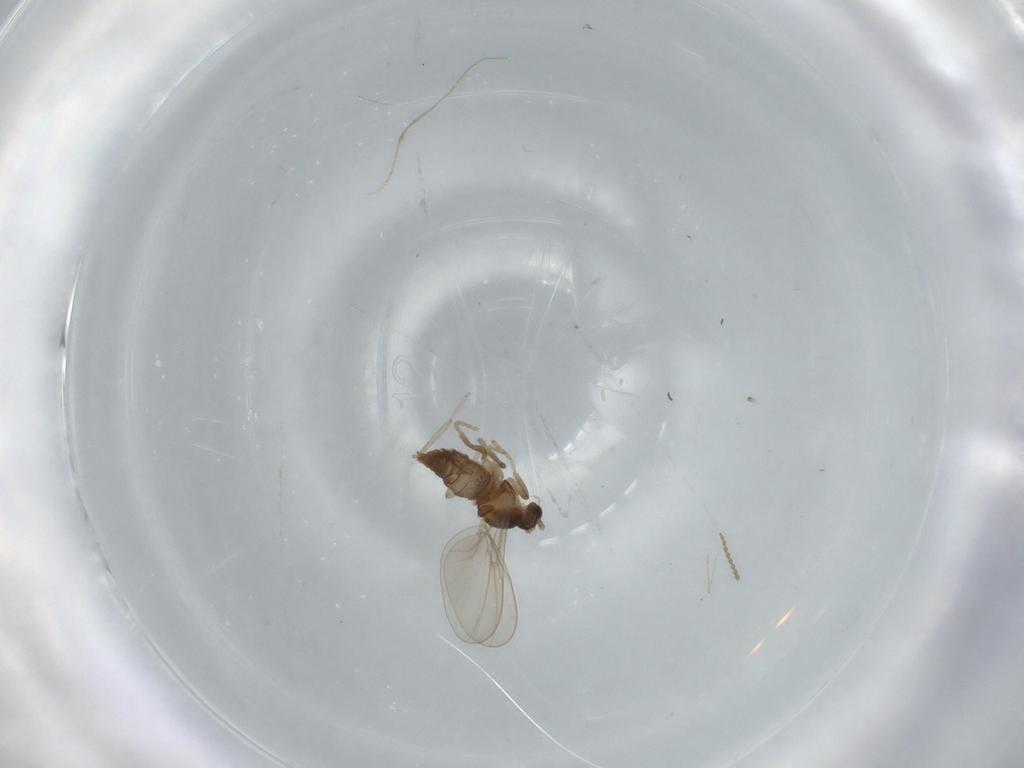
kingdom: Animalia
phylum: Arthropoda
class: Insecta
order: Diptera
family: Cecidomyiidae
